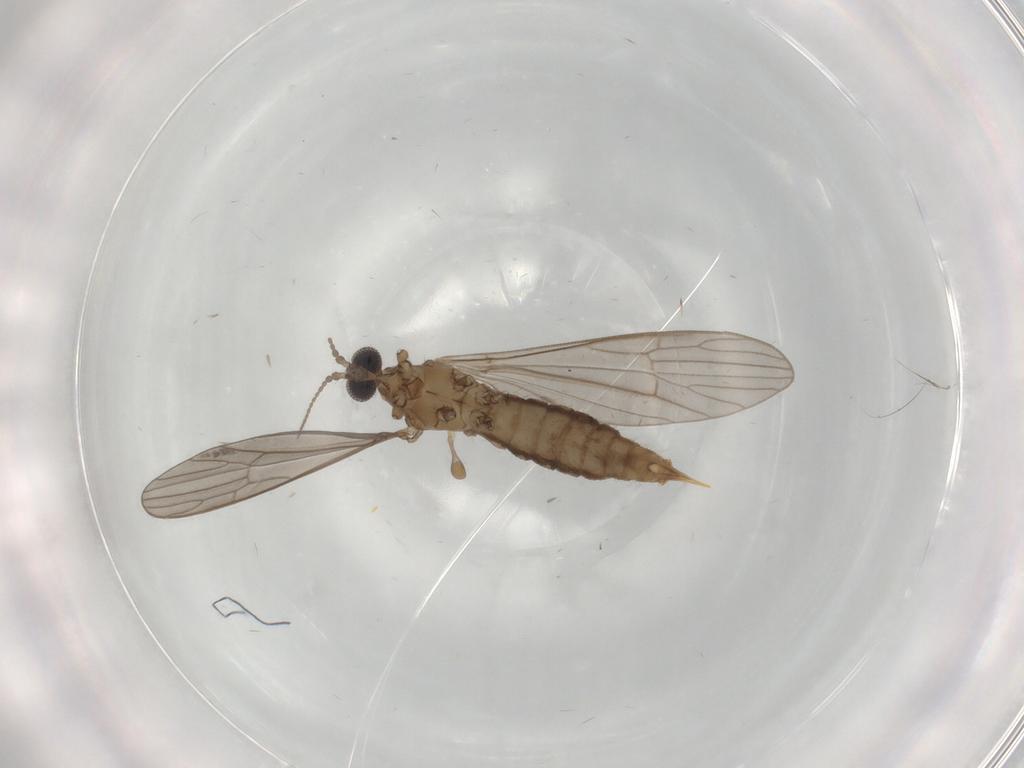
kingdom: Animalia
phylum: Arthropoda
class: Insecta
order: Diptera
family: Limoniidae
